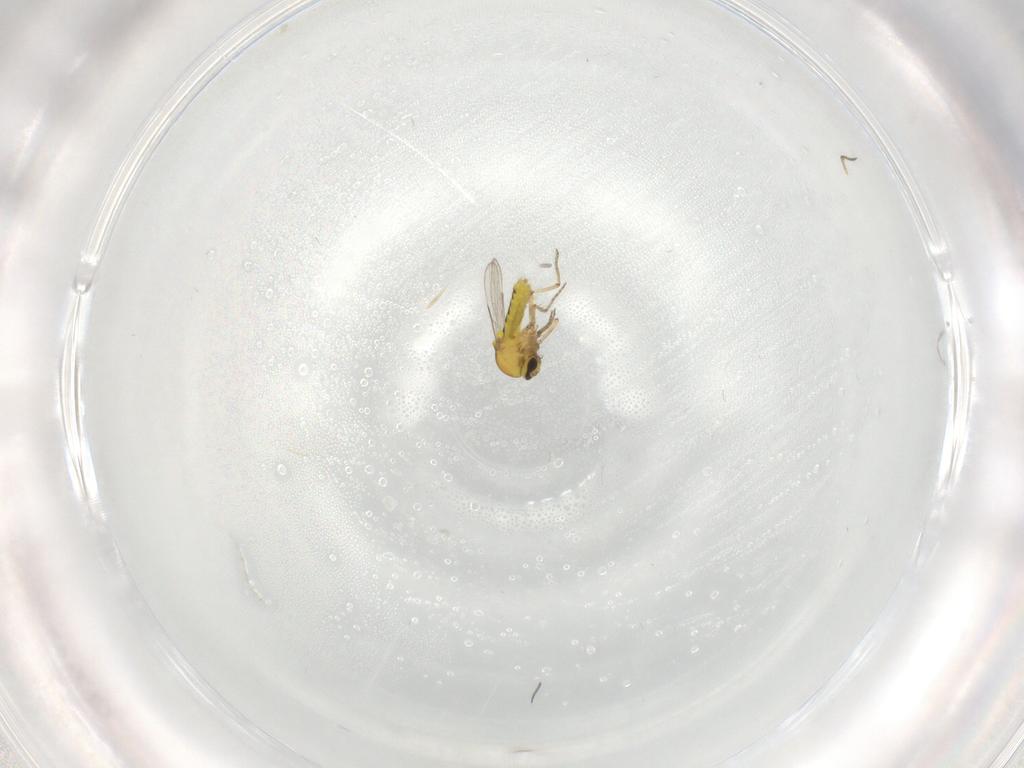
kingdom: Animalia
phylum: Arthropoda
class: Insecta
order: Diptera
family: Ceratopogonidae
